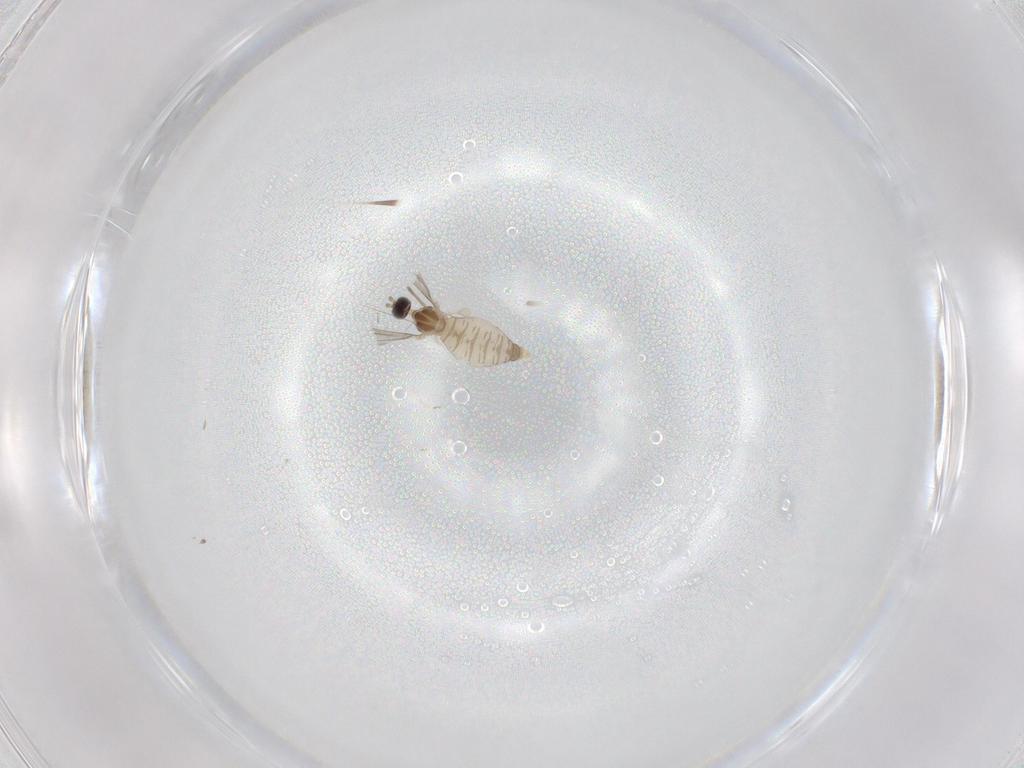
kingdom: Animalia
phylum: Arthropoda
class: Insecta
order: Diptera
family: Cecidomyiidae
